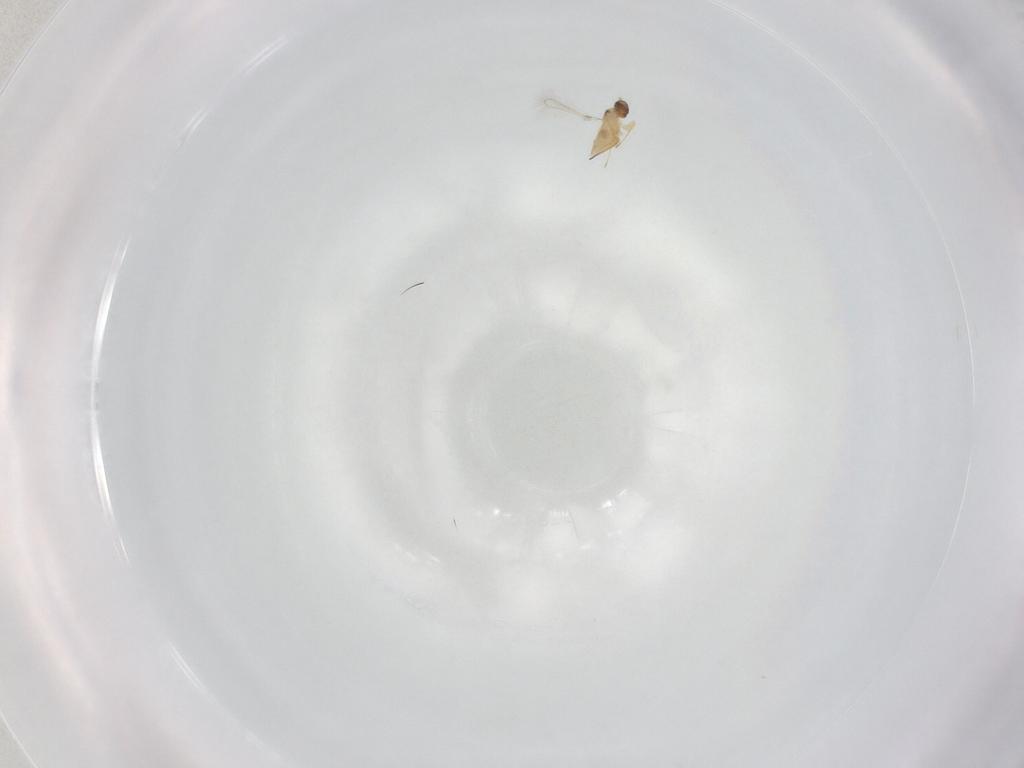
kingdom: Animalia
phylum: Arthropoda
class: Insecta
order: Hymenoptera
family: Mymaridae
